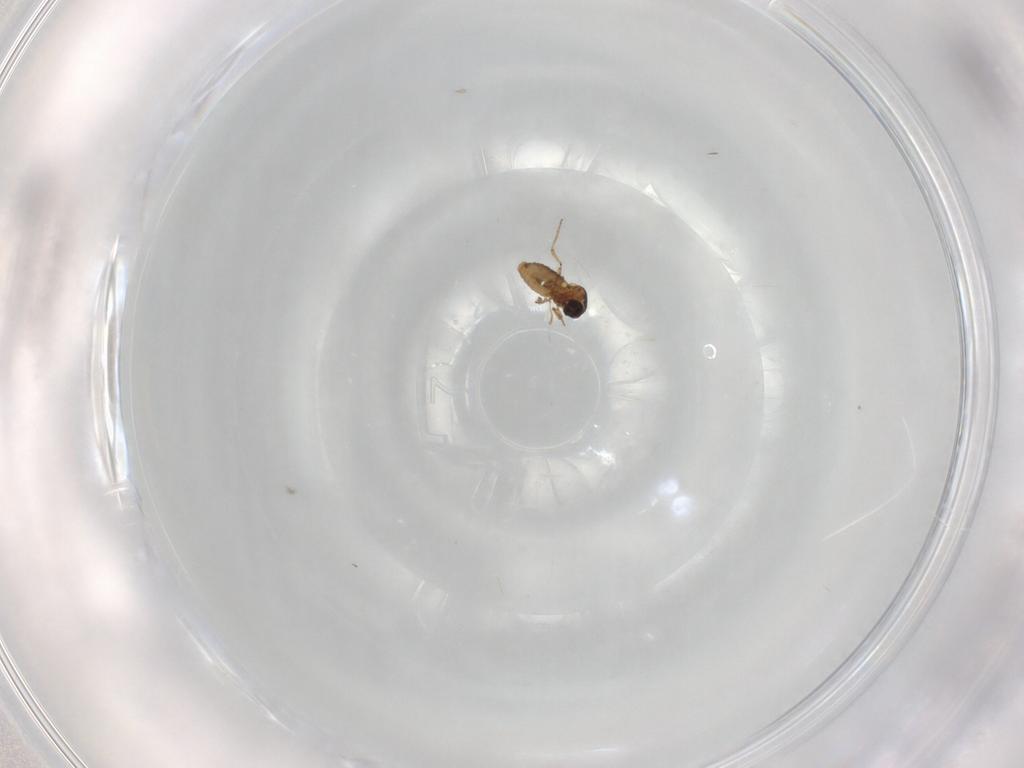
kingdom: Animalia
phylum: Arthropoda
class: Insecta
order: Diptera
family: Ceratopogonidae
